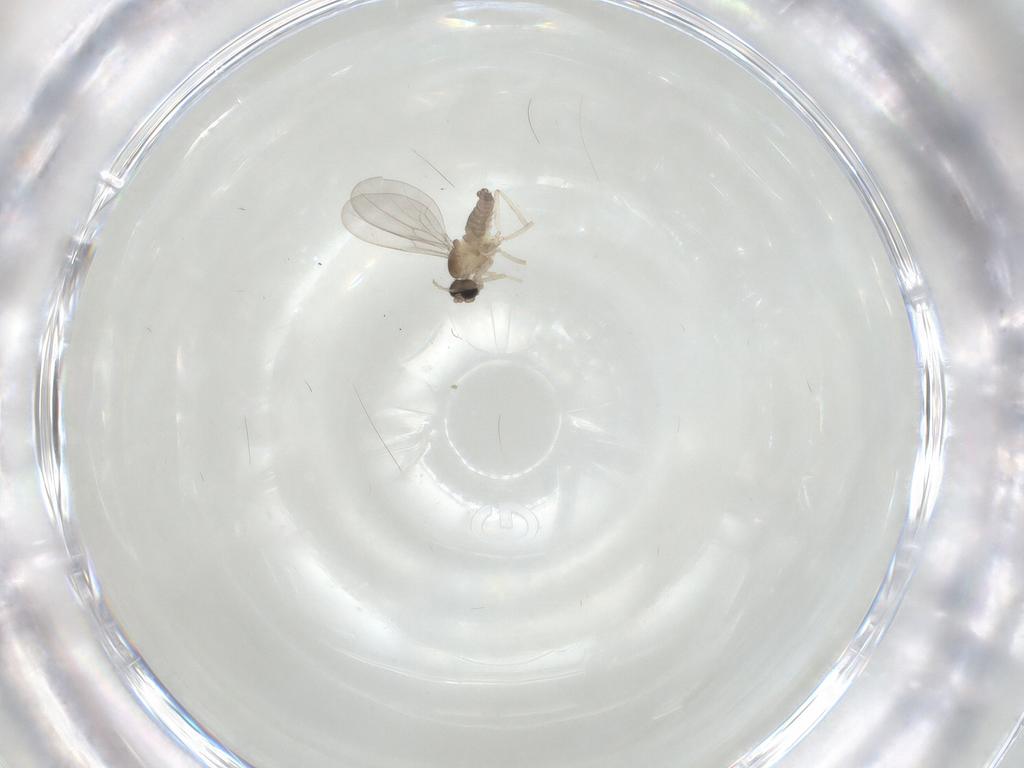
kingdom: Animalia
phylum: Arthropoda
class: Insecta
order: Diptera
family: Cecidomyiidae
